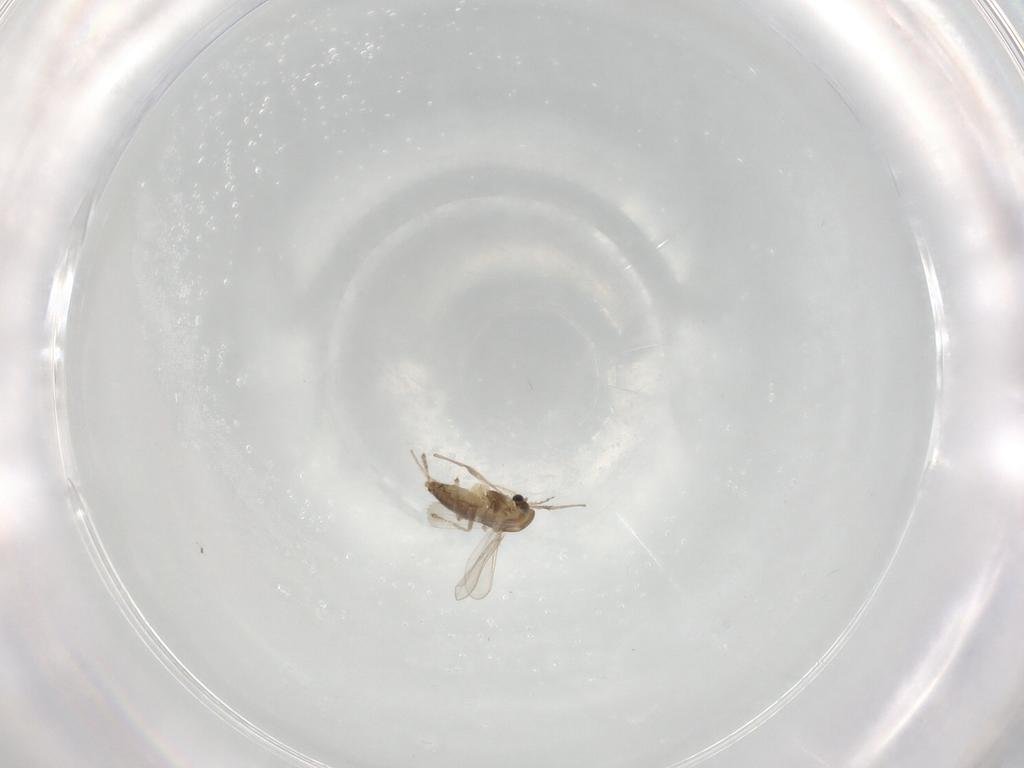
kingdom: Animalia
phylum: Arthropoda
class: Insecta
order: Diptera
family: Chironomidae
